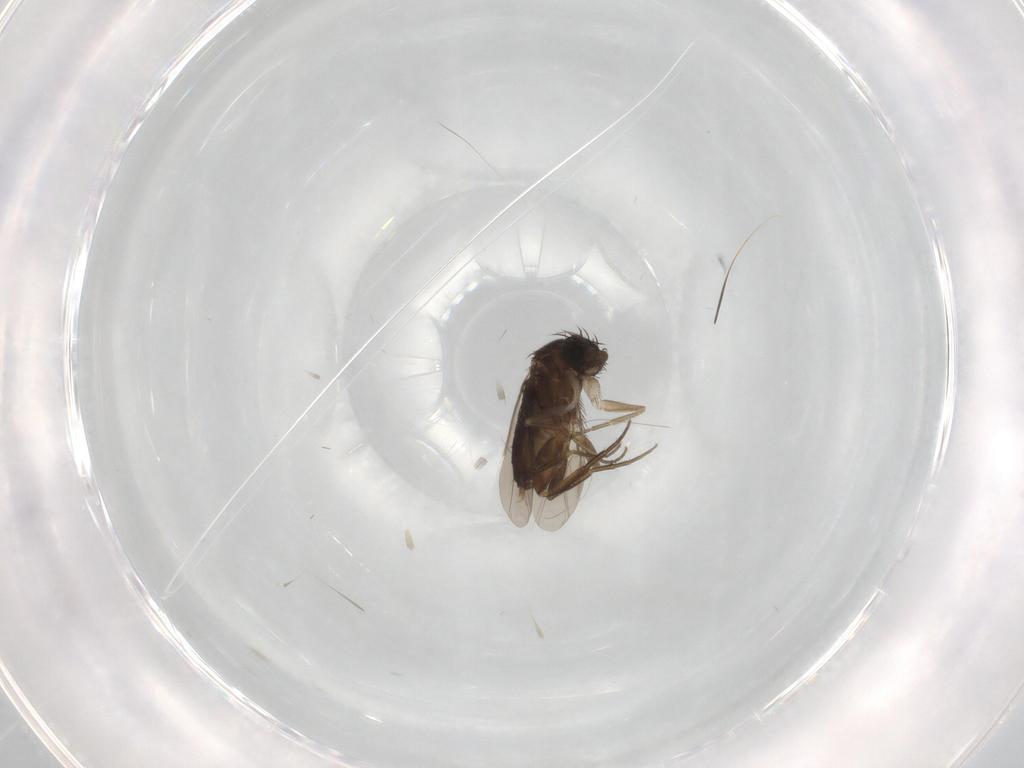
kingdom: Animalia
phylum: Arthropoda
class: Insecta
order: Diptera
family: Phoridae
